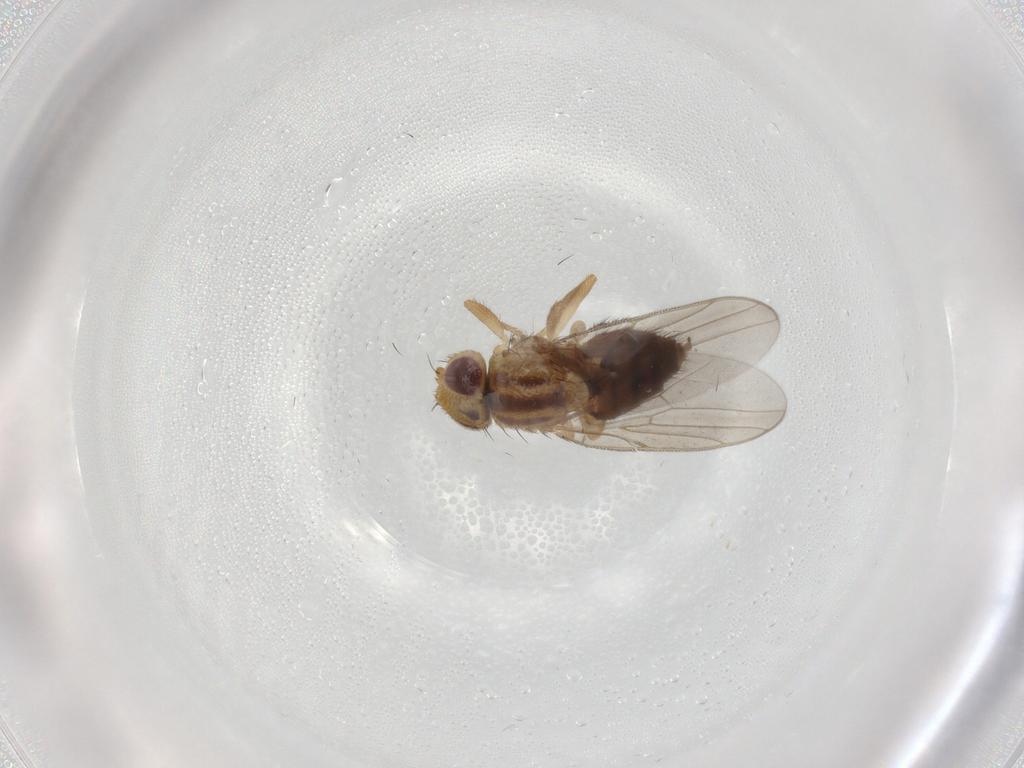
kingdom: Animalia
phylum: Arthropoda
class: Insecta
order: Diptera
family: Chloropidae
